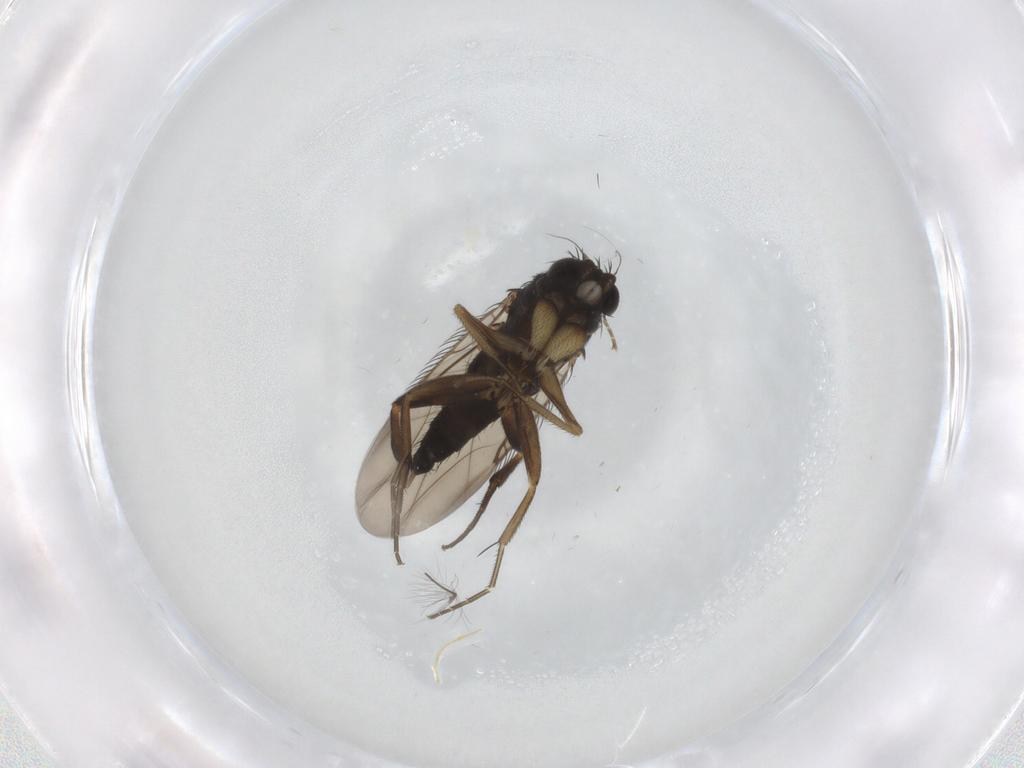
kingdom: Animalia
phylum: Arthropoda
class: Insecta
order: Diptera
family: Phoridae
